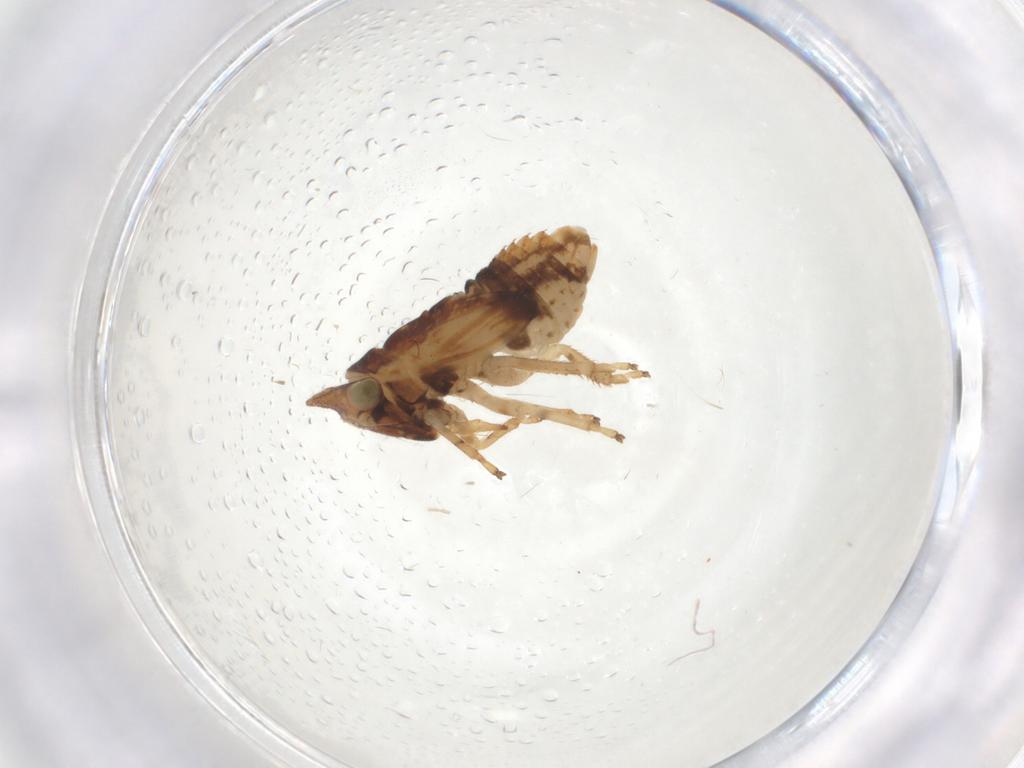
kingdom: Animalia
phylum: Arthropoda
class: Insecta
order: Hemiptera
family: Cicadellidae
